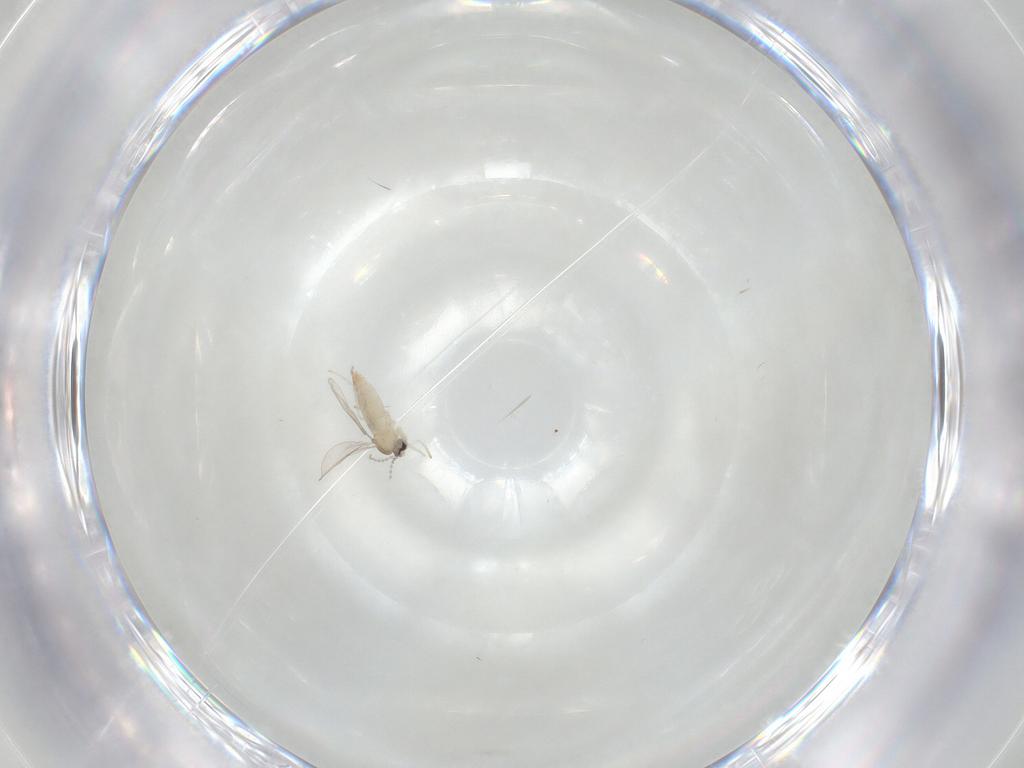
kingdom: Animalia
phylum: Arthropoda
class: Insecta
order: Diptera
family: Cecidomyiidae
